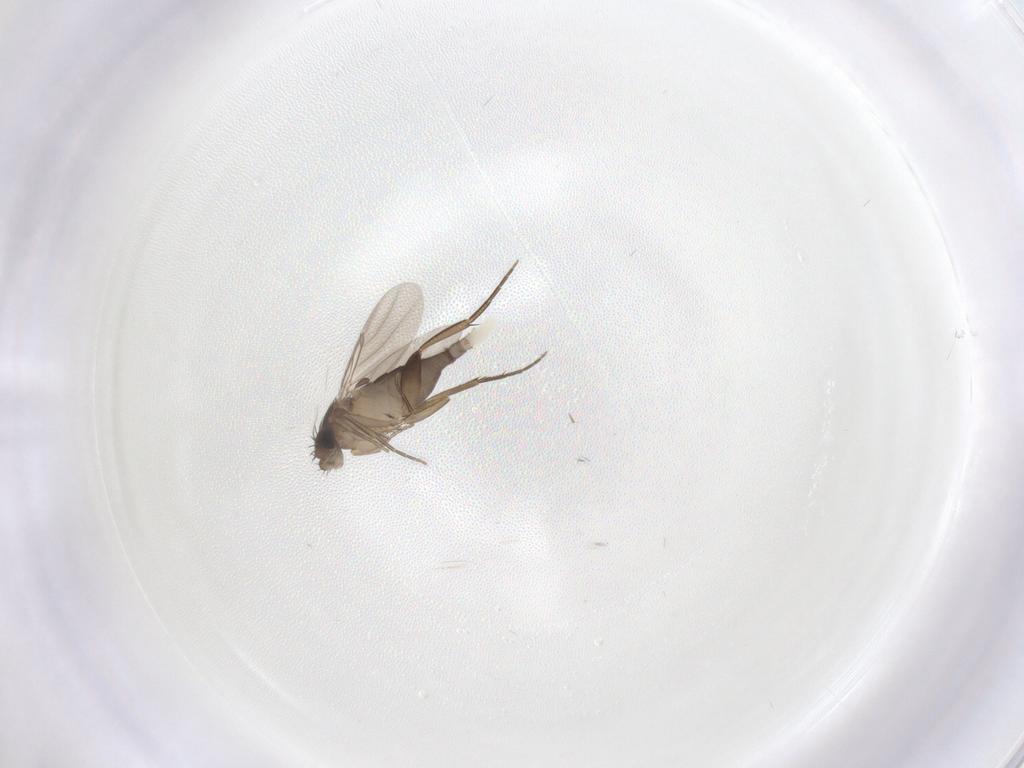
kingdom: Animalia
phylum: Arthropoda
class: Insecta
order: Diptera
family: Phoridae
